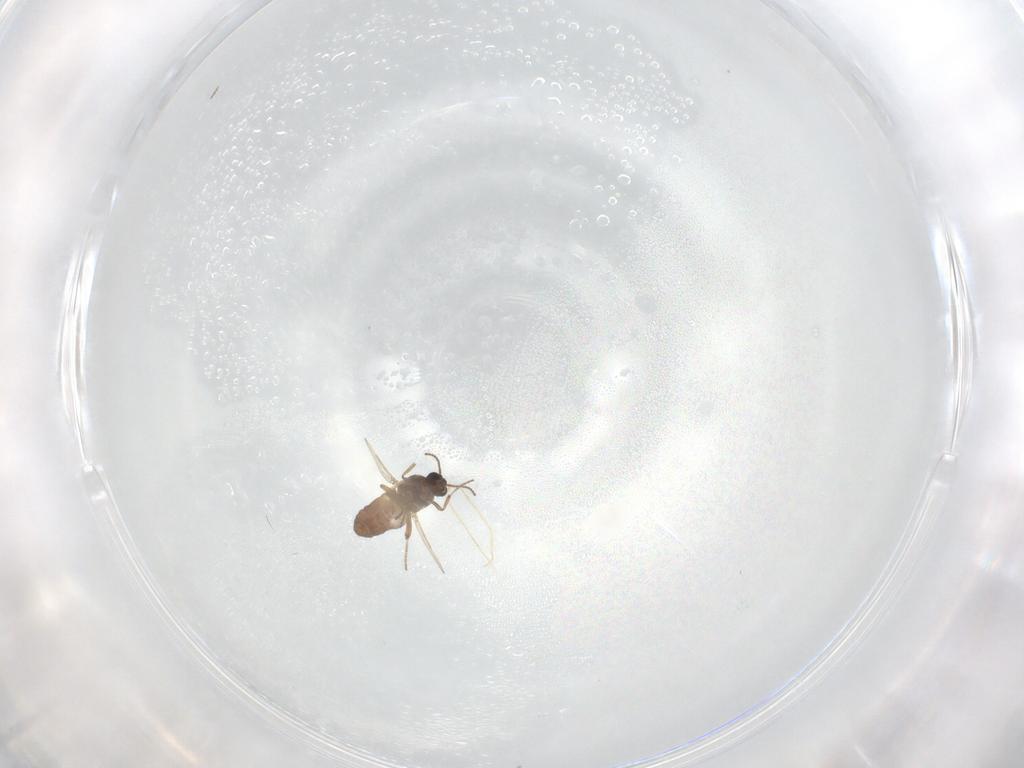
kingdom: Animalia
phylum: Arthropoda
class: Insecta
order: Diptera
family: Ceratopogonidae
